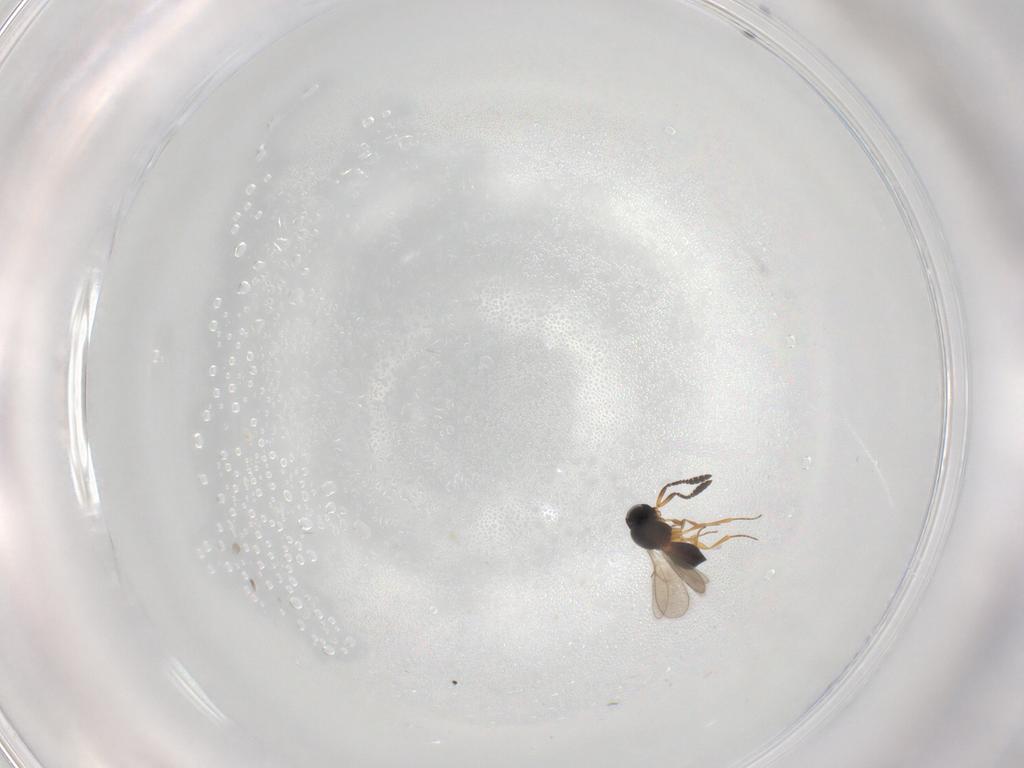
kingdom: Animalia
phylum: Arthropoda
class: Insecta
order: Hymenoptera
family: Scelionidae
